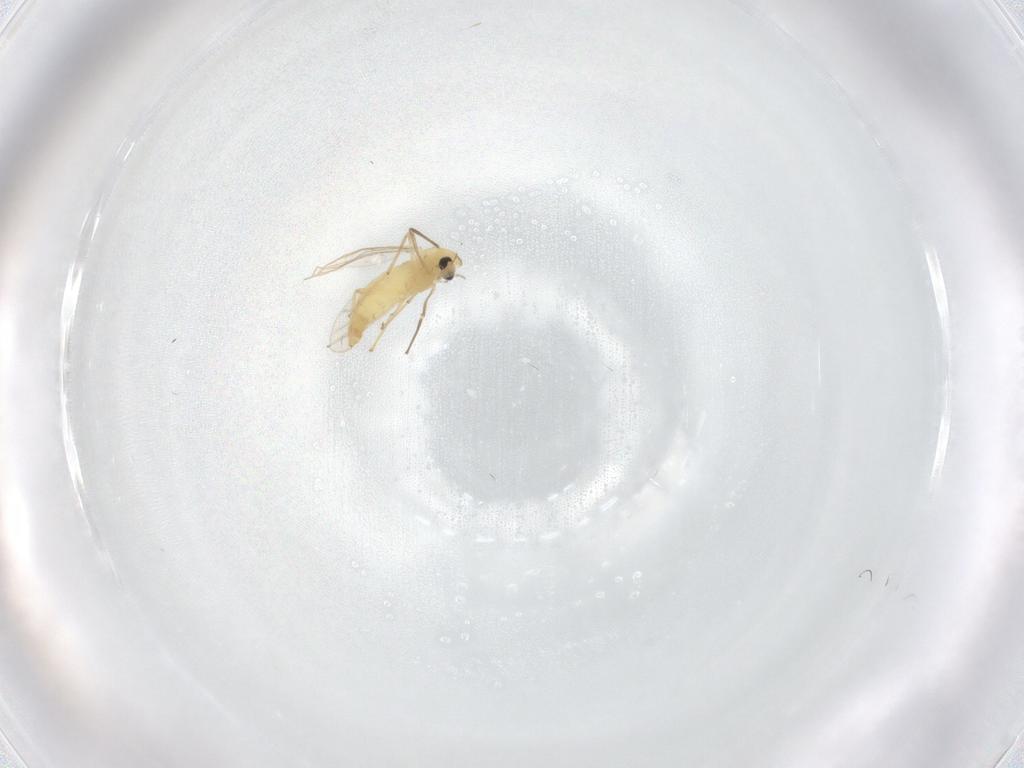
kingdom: Animalia
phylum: Arthropoda
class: Insecta
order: Diptera
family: Chironomidae
